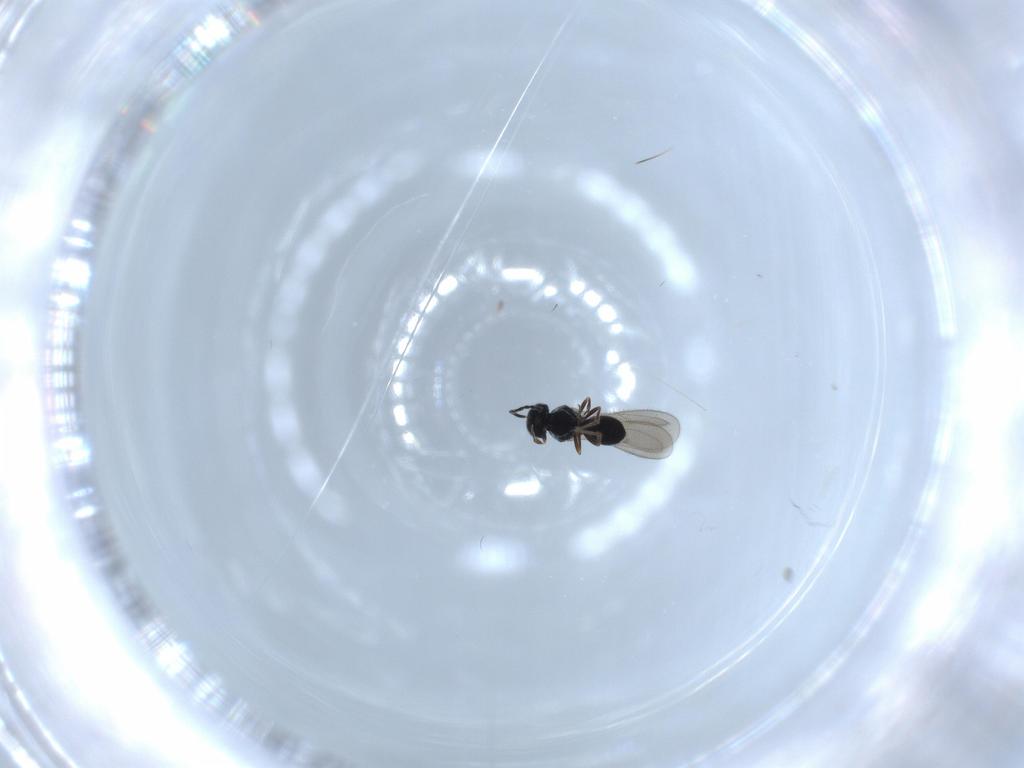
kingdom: Animalia
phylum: Arthropoda
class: Insecta
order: Hymenoptera
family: Scelionidae
